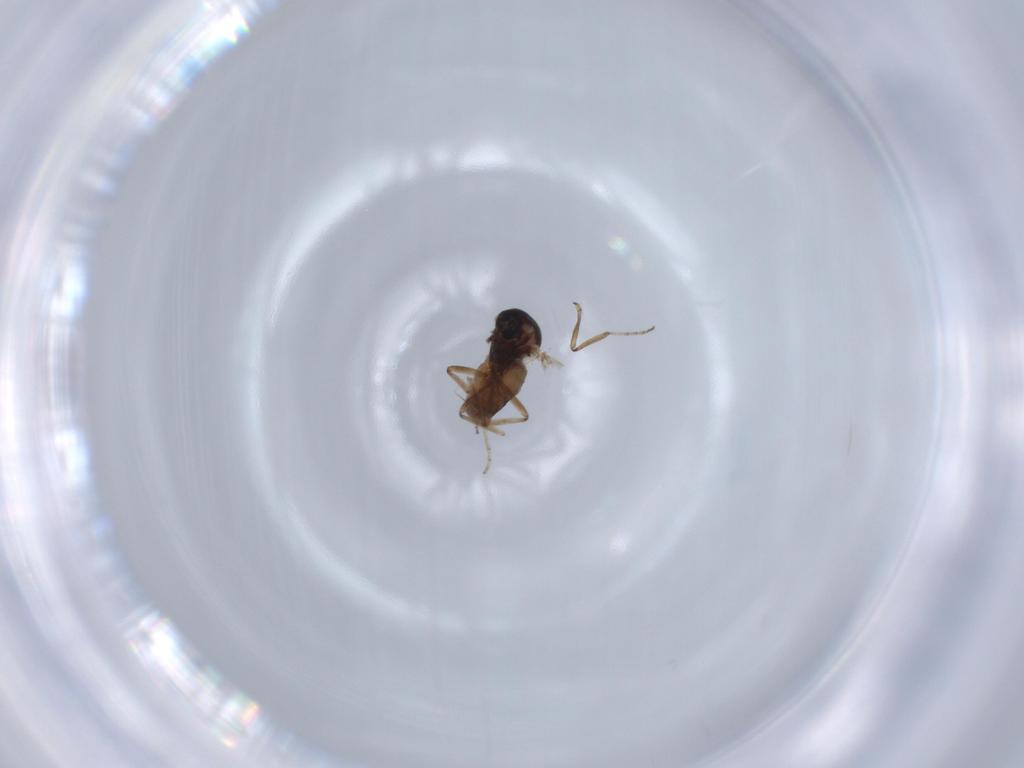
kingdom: Animalia
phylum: Arthropoda
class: Insecta
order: Diptera
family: Ceratopogonidae
